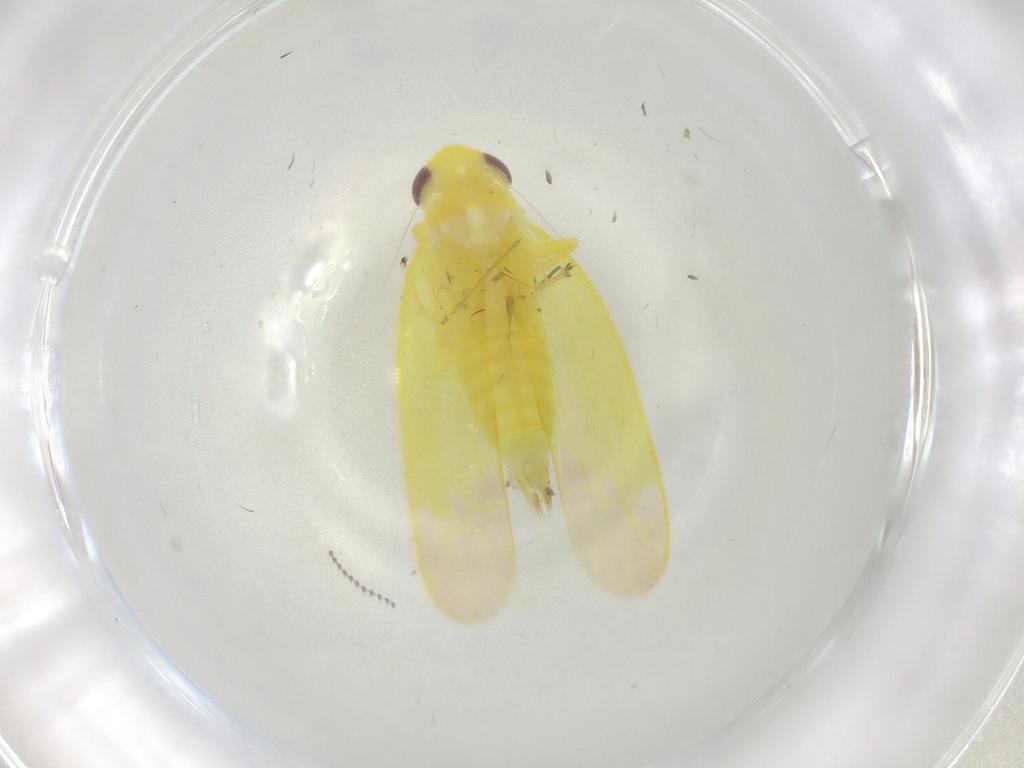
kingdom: Animalia
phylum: Arthropoda
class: Insecta
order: Hemiptera
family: Cicadellidae
